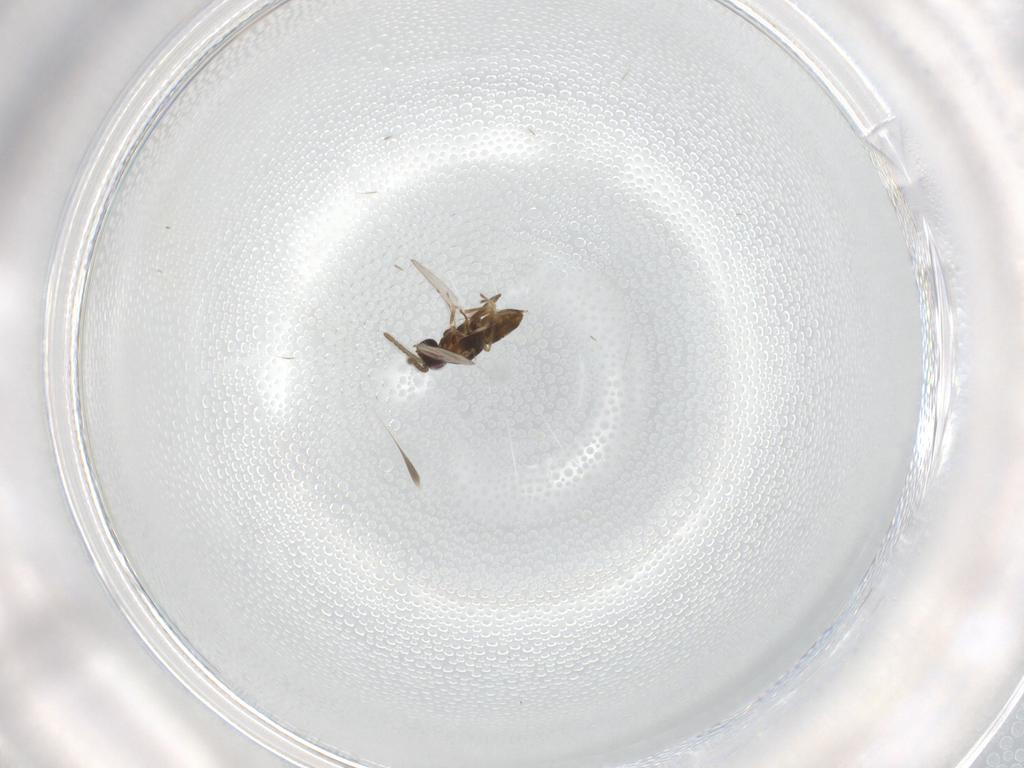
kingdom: Animalia
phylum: Arthropoda
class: Insecta
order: Hymenoptera
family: Encyrtidae
